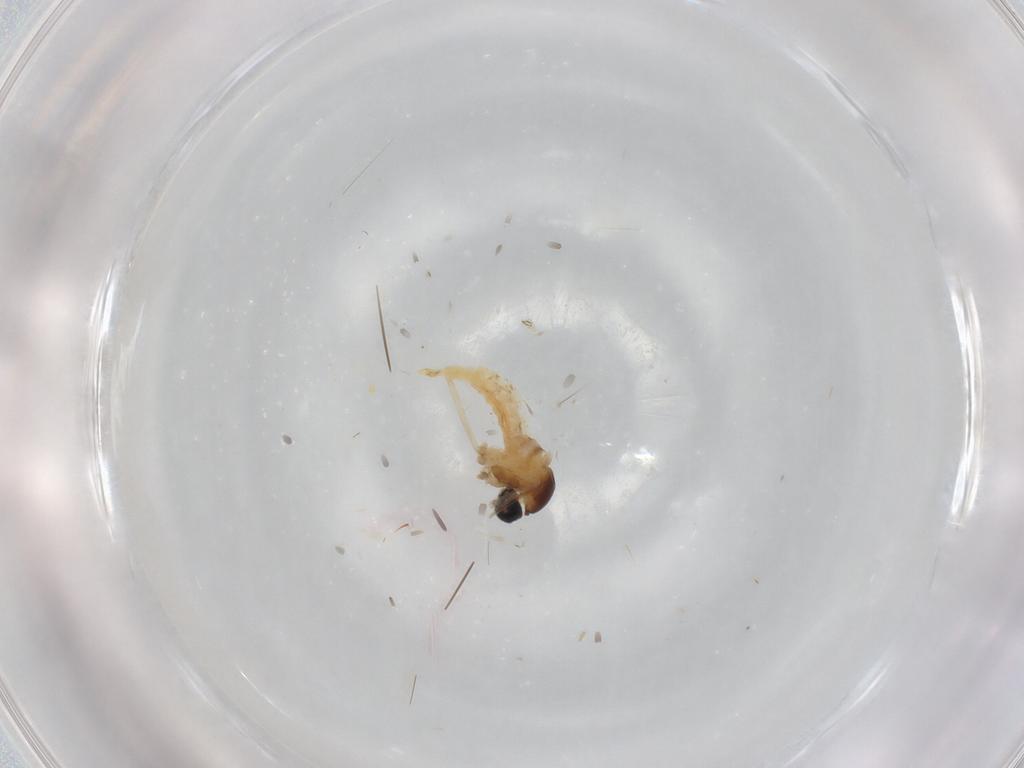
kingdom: Animalia
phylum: Arthropoda
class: Insecta
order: Diptera
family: Cecidomyiidae
